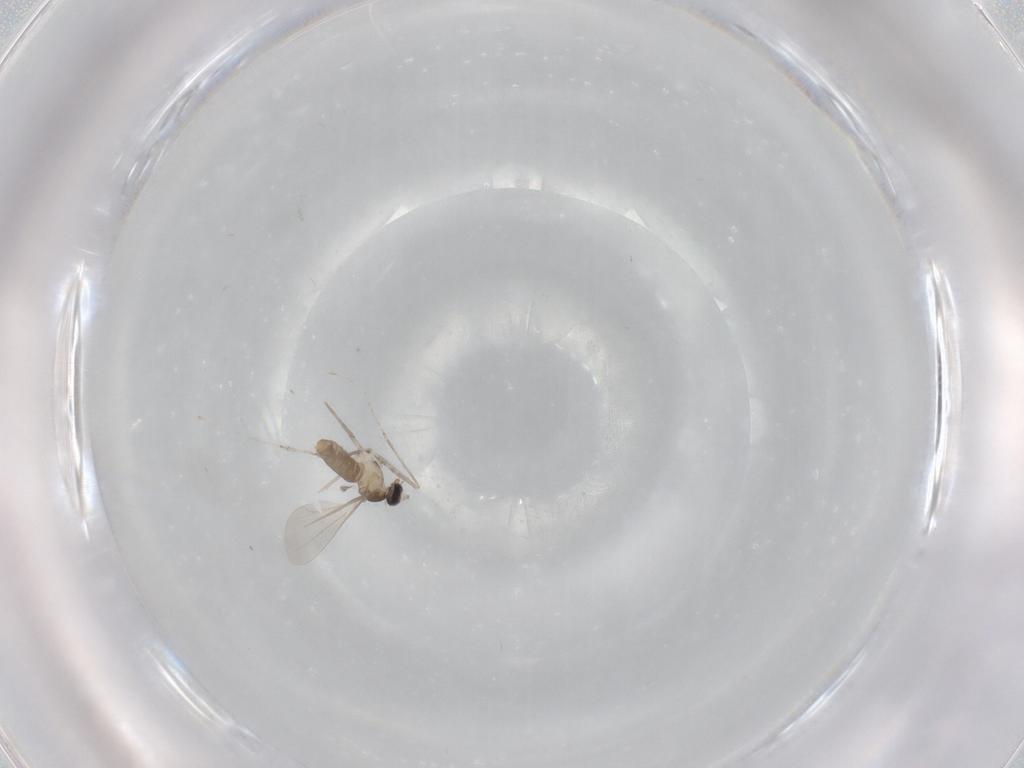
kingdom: Animalia
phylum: Arthropoda
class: Insecta
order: Diptera
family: Cecidomyiidae
